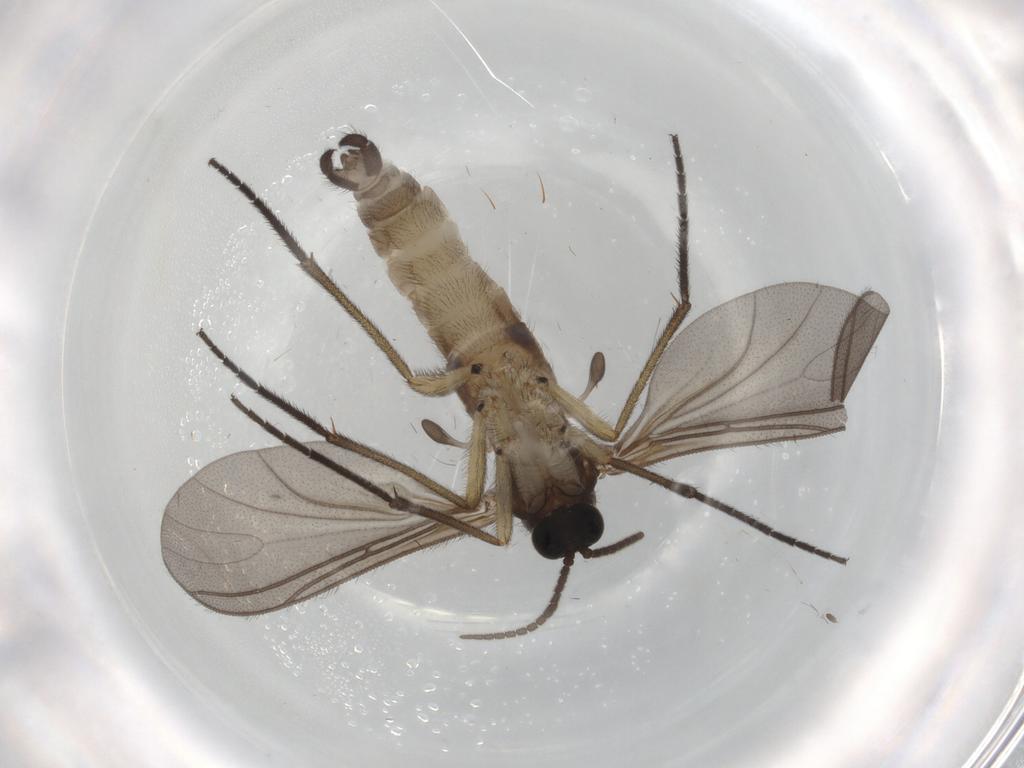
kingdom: Animalia
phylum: Arthropoda
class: Insecta
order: Diptera
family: Sciaridae
